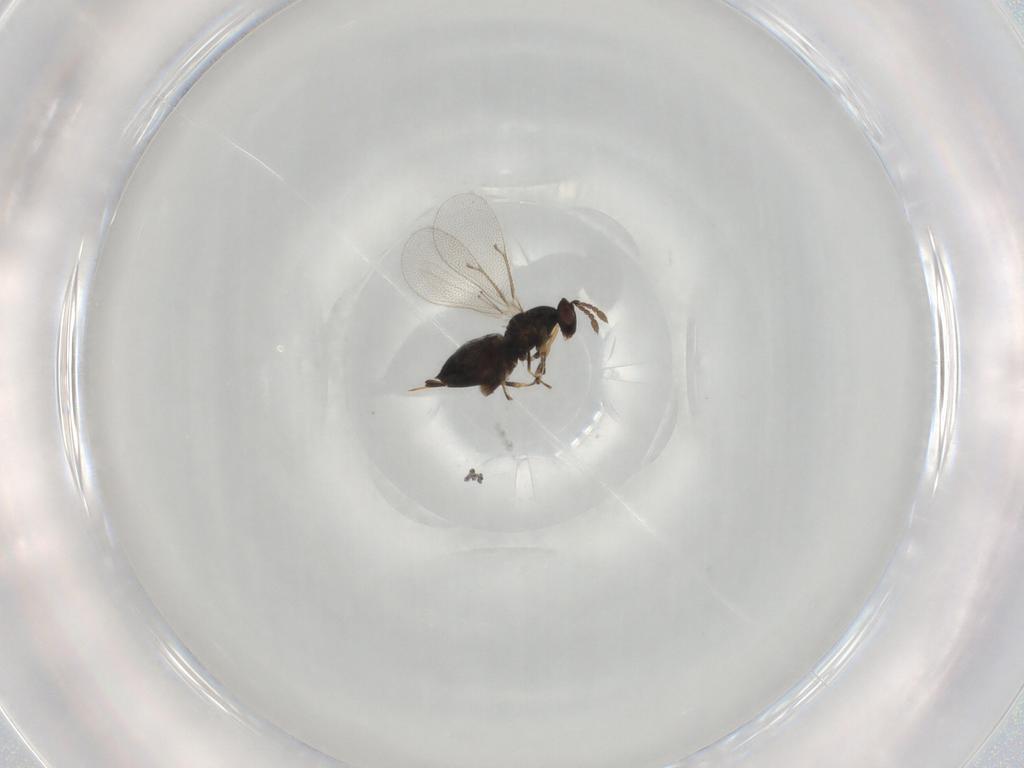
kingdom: Animalia
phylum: Arthropoda
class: Insecta
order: Hymenoptera
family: Eulophidae
